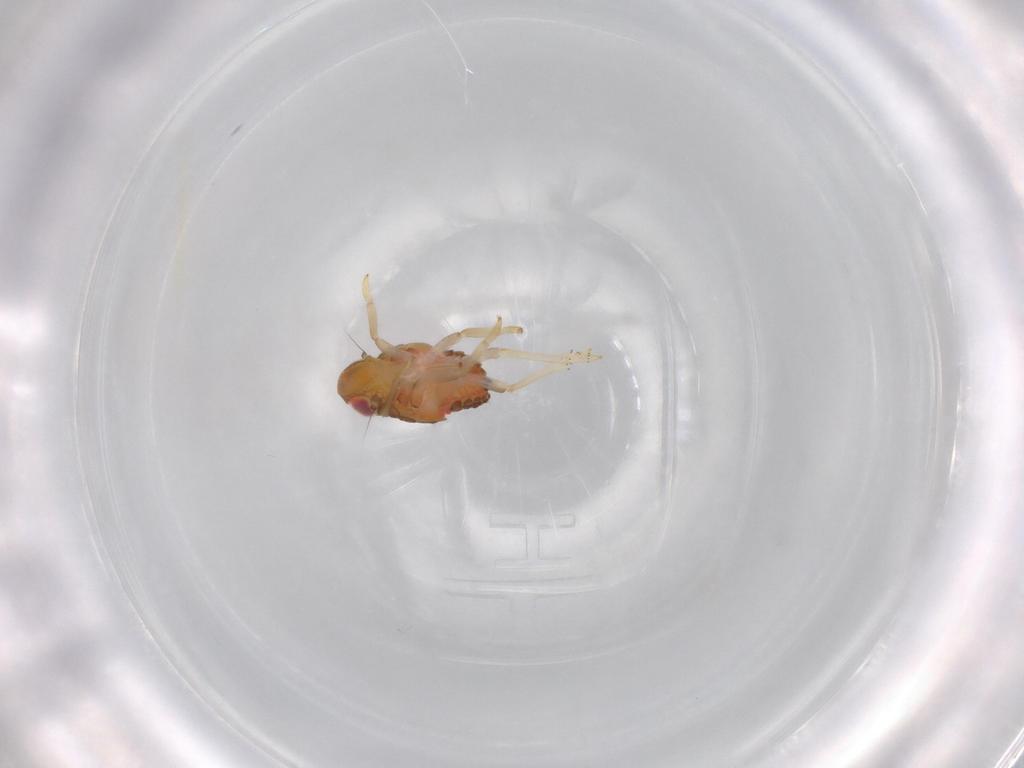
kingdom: Animalia
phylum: Arthropoda
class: Insecta
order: Hemiptera
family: Issidae
